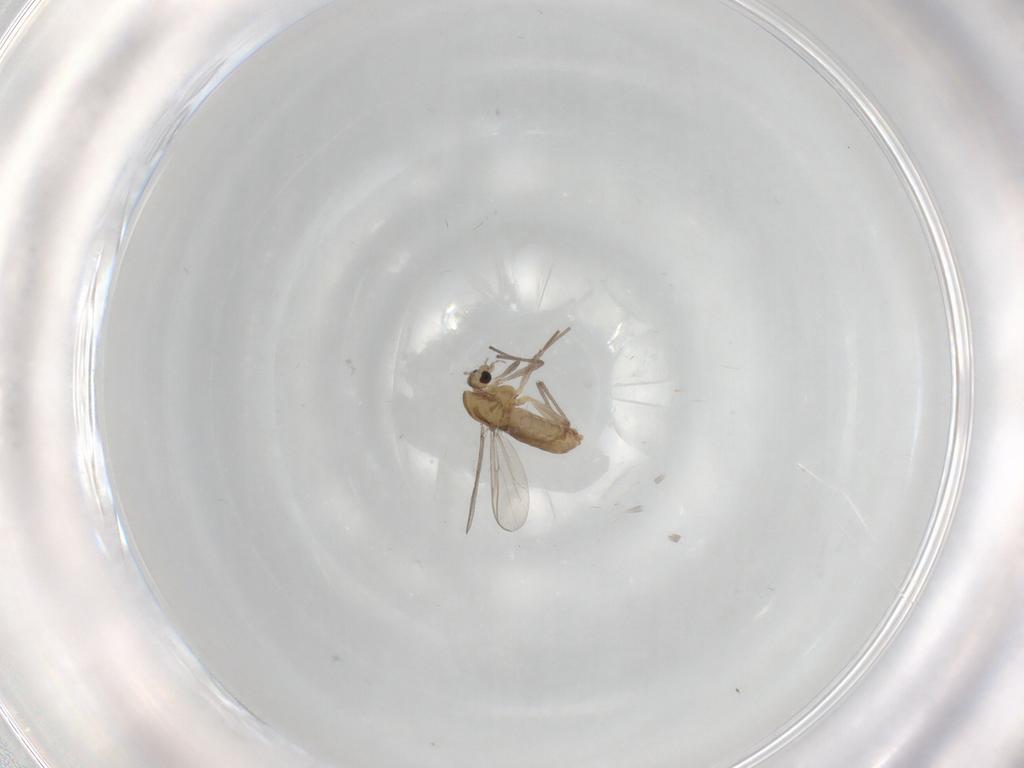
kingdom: Animalia
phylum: Arthropoda
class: Insecta
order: Diptera
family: Chironomidae
